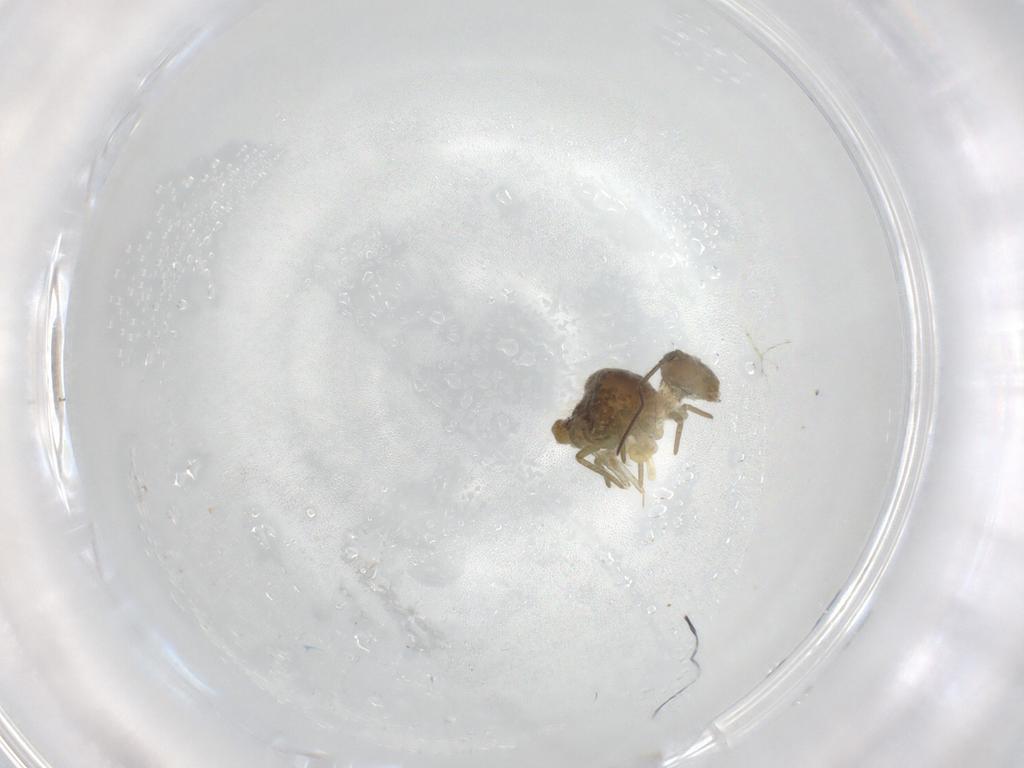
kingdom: Animalia
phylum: Arthropoda
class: Collembola
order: Symphypleona
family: Sminthuridae
